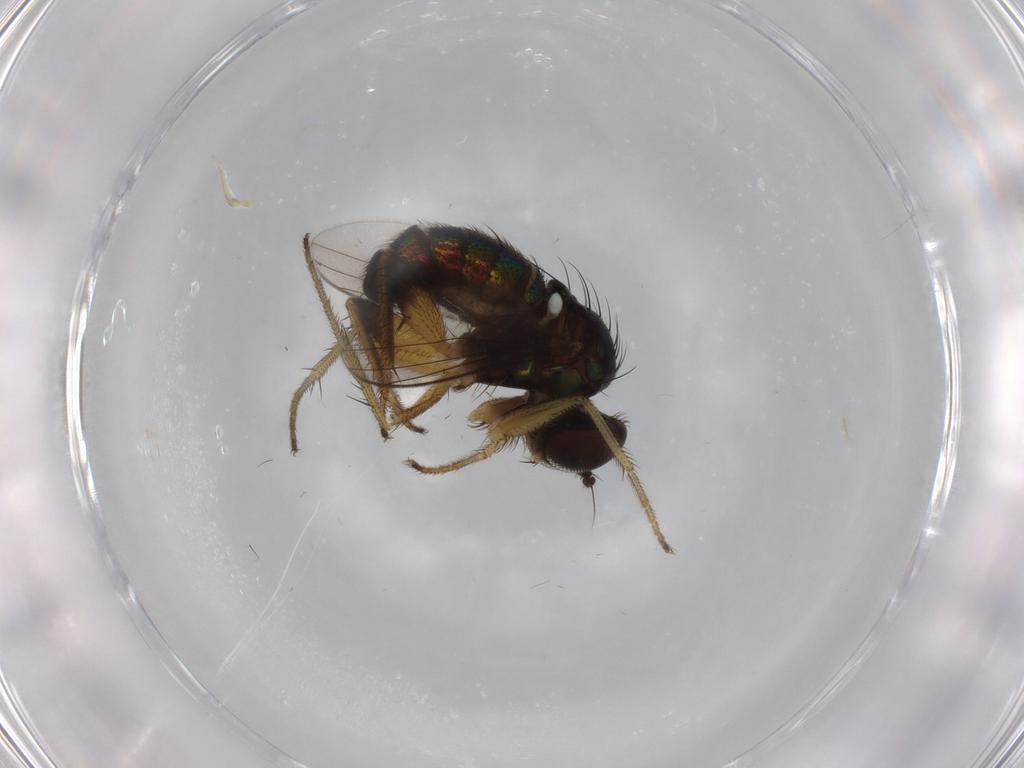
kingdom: Animalia
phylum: Arthropoda
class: Insecta
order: Diptera
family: Dolichopodidae
